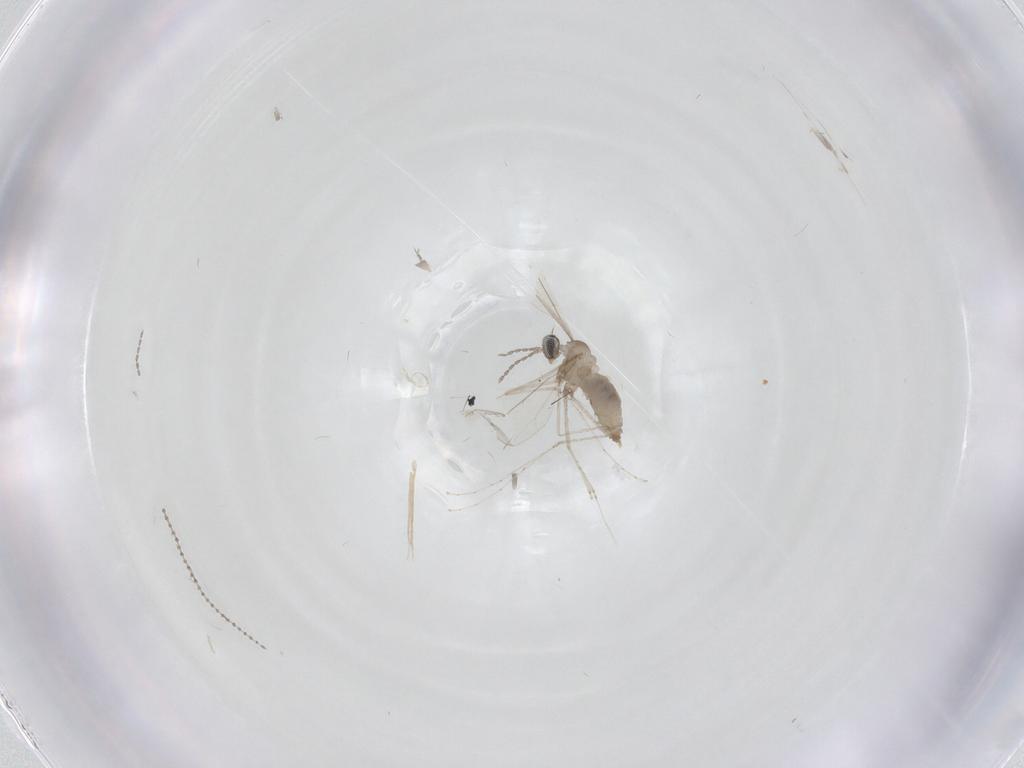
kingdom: Animalia
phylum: Arthropoda
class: Insecta
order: Diptera
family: Cecidomyiidae
